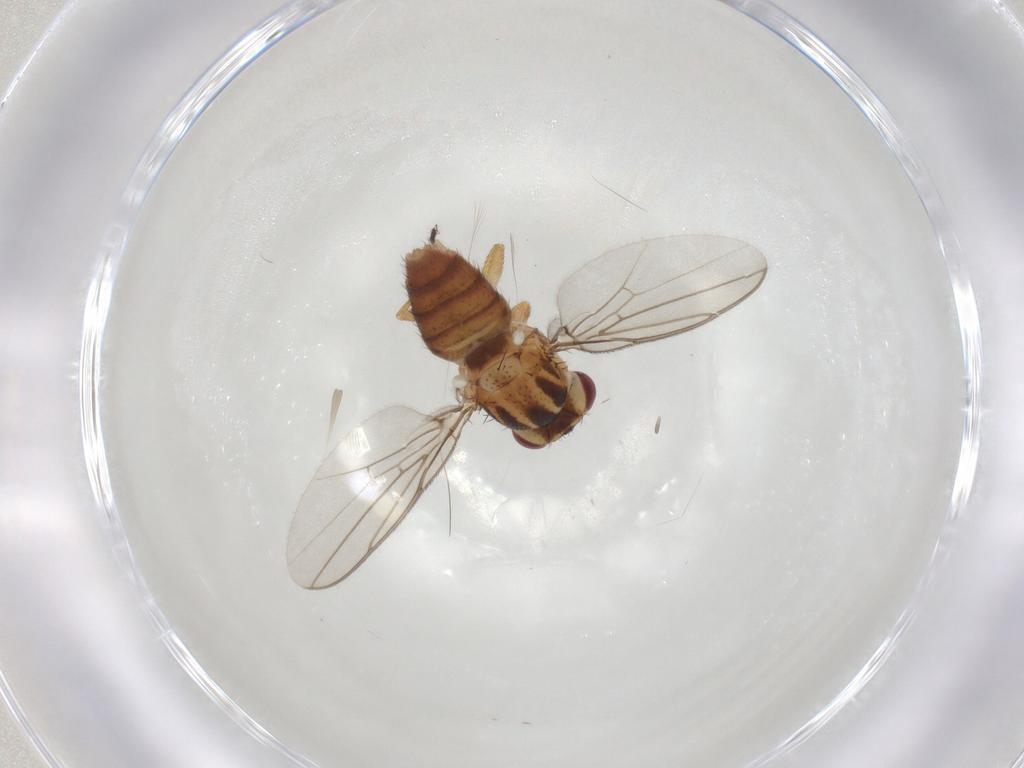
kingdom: Animalia
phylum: Arthropoda
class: Insecta
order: Diptera
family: Chloropidae
